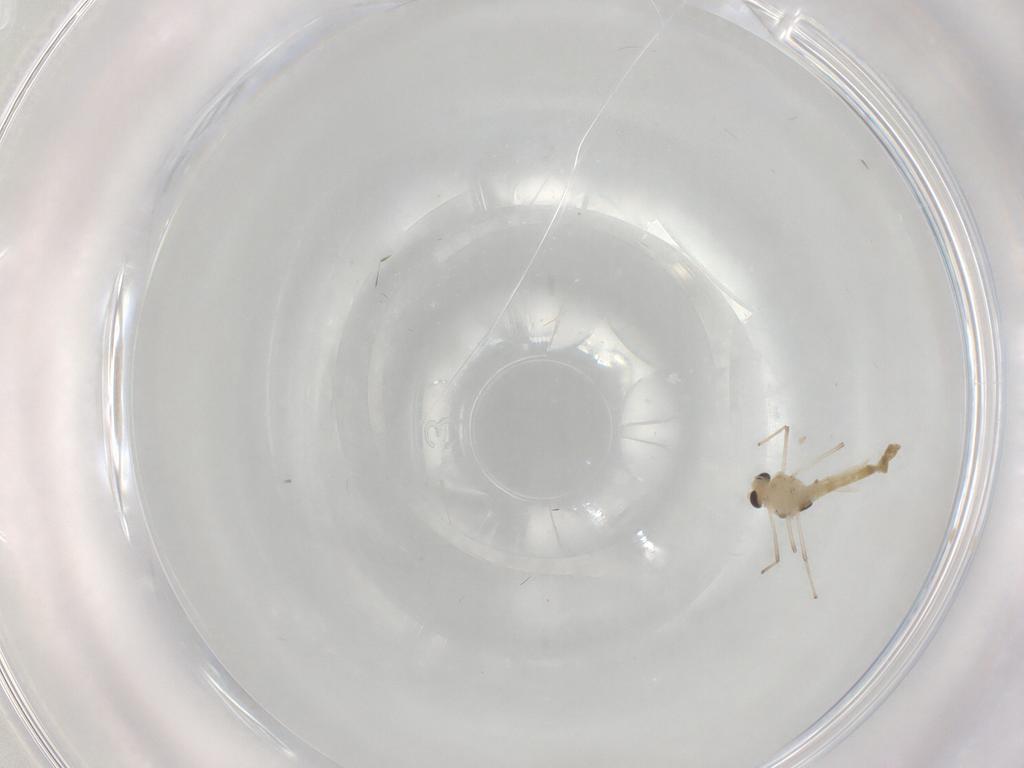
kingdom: Animalia
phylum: Arthropoda
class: Insecta
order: Diptera
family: Chironomidae
